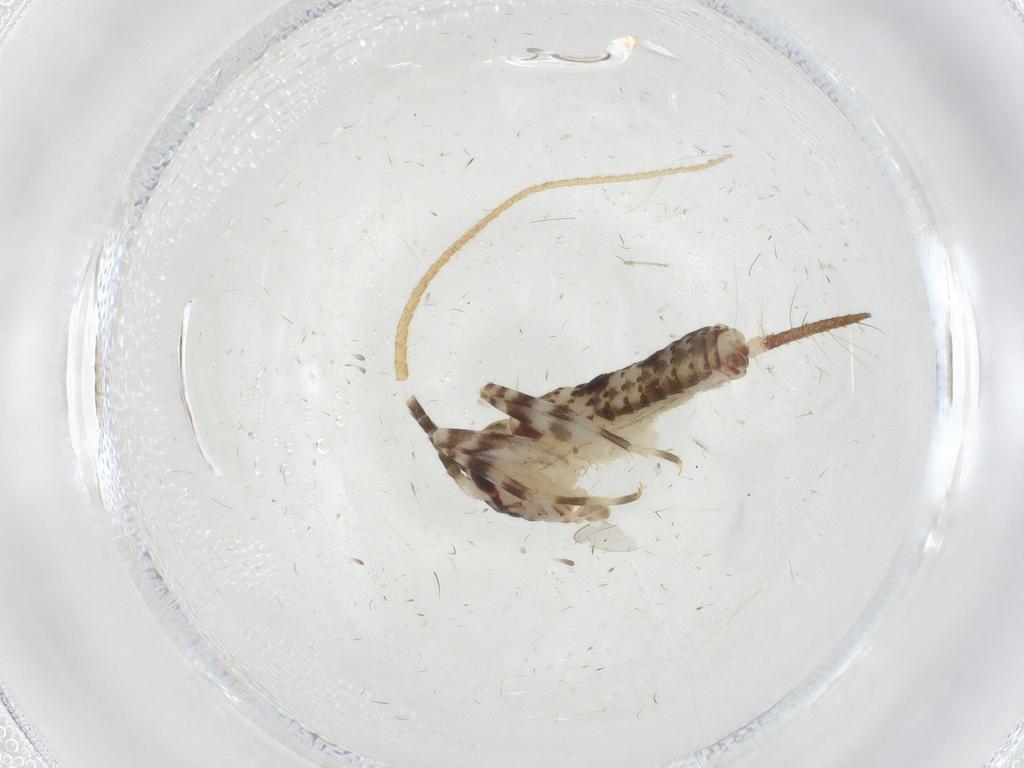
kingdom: Animalia
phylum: Arthropoda
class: Insecta
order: Orthoptera
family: Gryllidae
